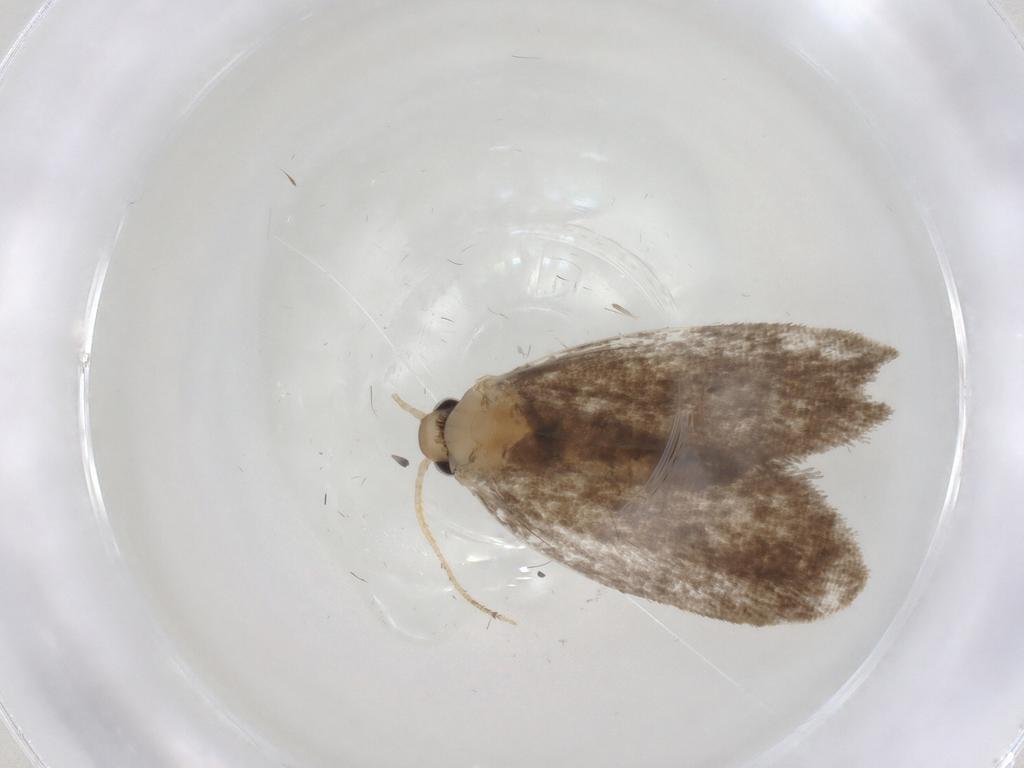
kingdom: Animalia
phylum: Arthropoda
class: Insecta
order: Lepidoptera
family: Psychidae
